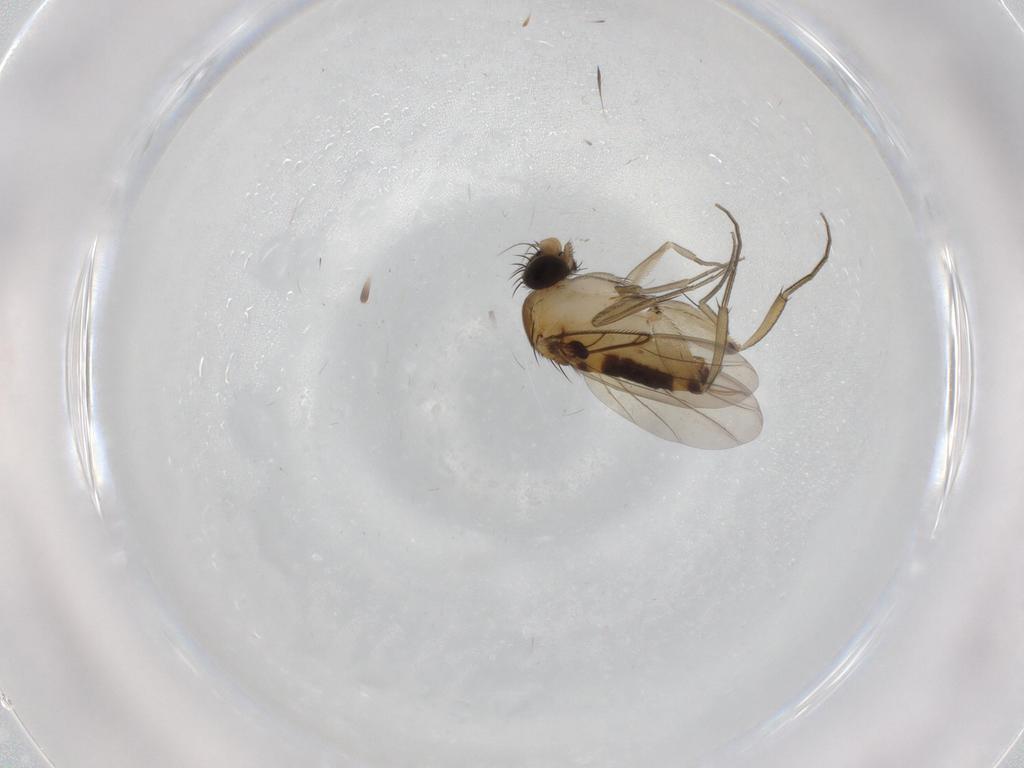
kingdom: Animalia
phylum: Arthropoda
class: Insecta
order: Diptera
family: Phoridae
